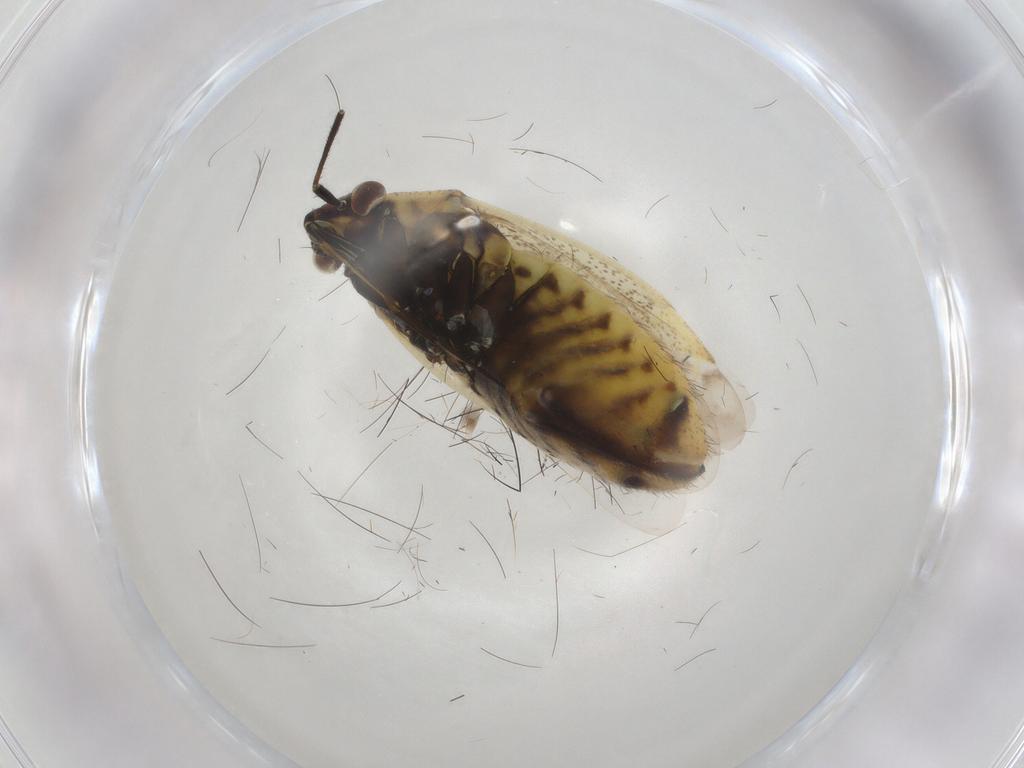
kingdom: Animalia
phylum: Arthropoda
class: Insecta
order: Hemiptera
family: Miridae
